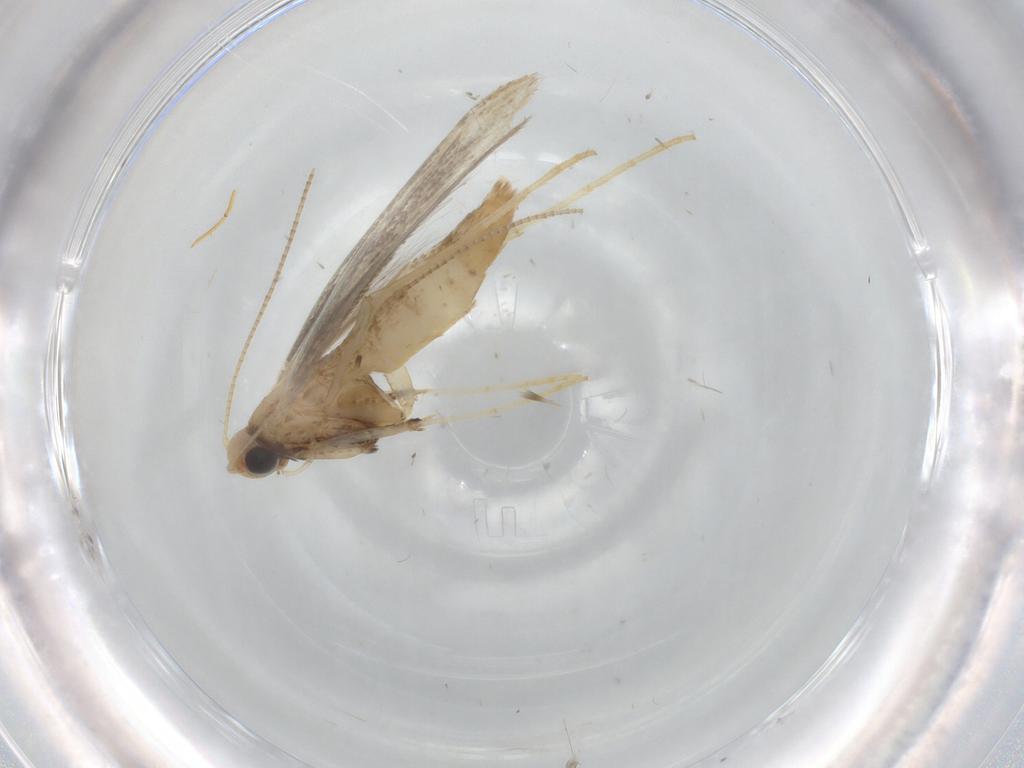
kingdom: Animalia
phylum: Arthropoda
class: Insecta
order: Lepidoptera
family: Gracillariidae
